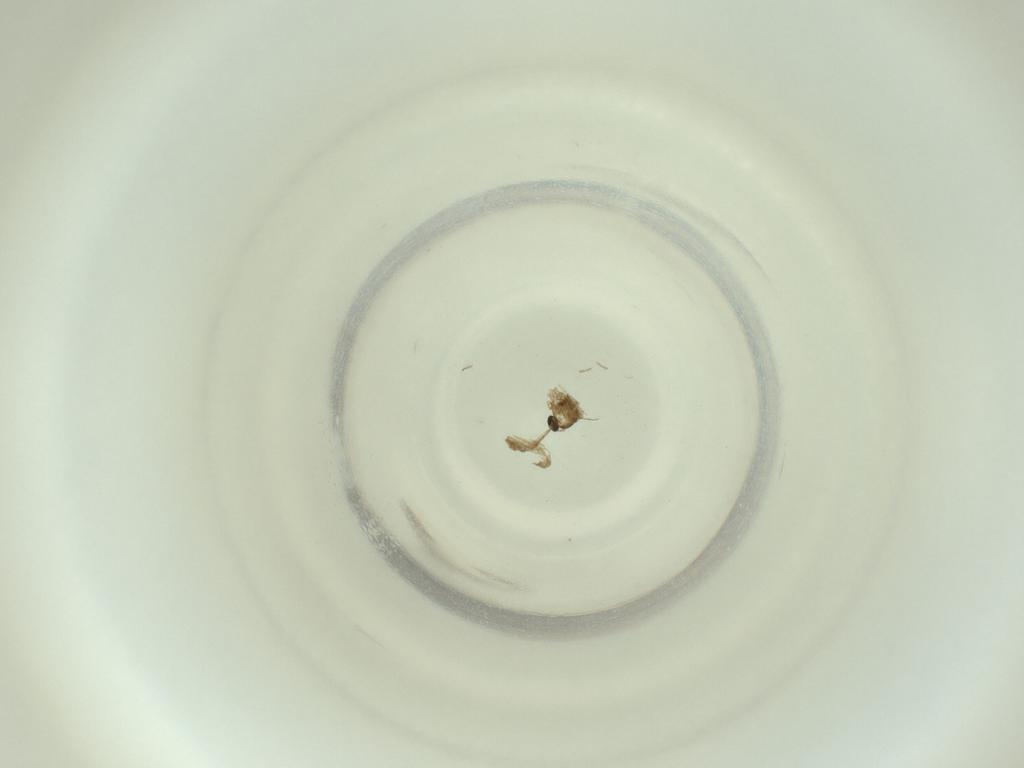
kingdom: Animalia
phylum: Arthropoda
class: Insecta
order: Diptera
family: Cecidomyiidae
